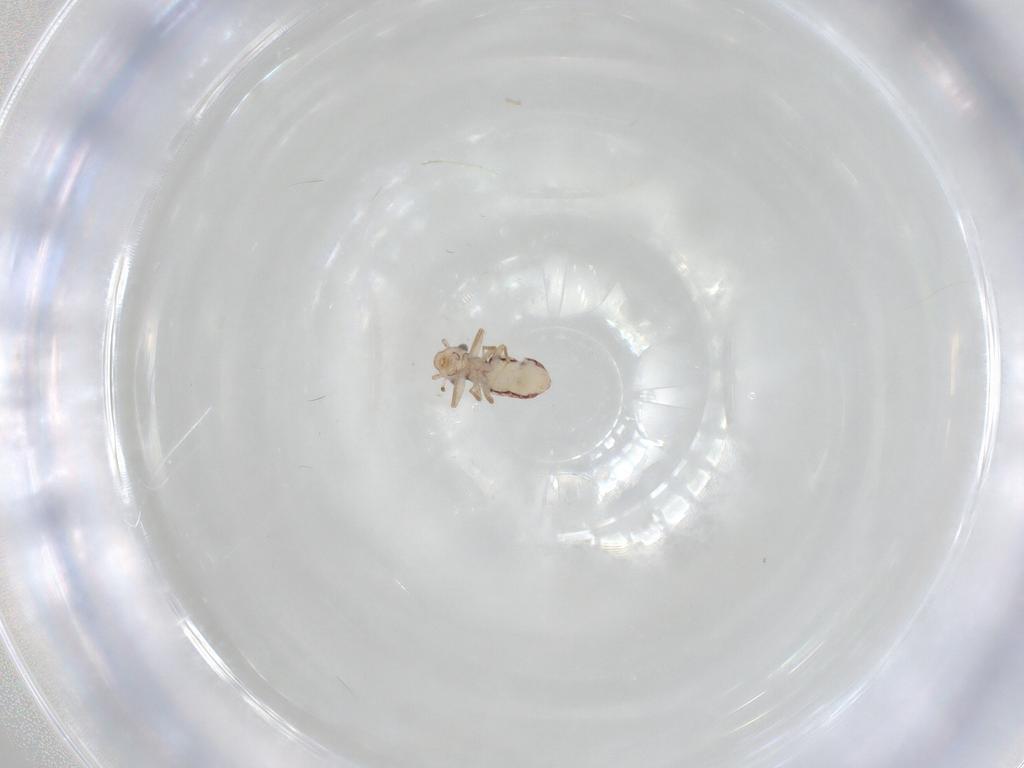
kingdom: Animalia
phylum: Arthropoda
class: Insecta
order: Psocodea
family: Lepidopsocidae
